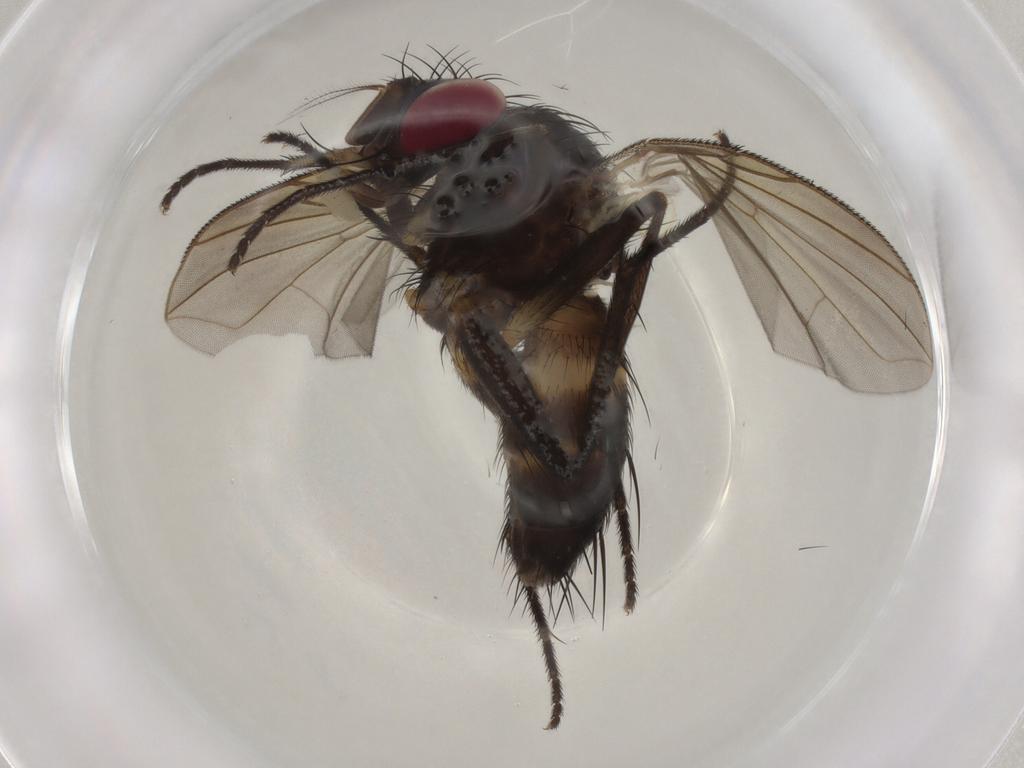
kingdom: Animalia
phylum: Arthropoda
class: Insecta
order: Diptera
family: Tachinidae
